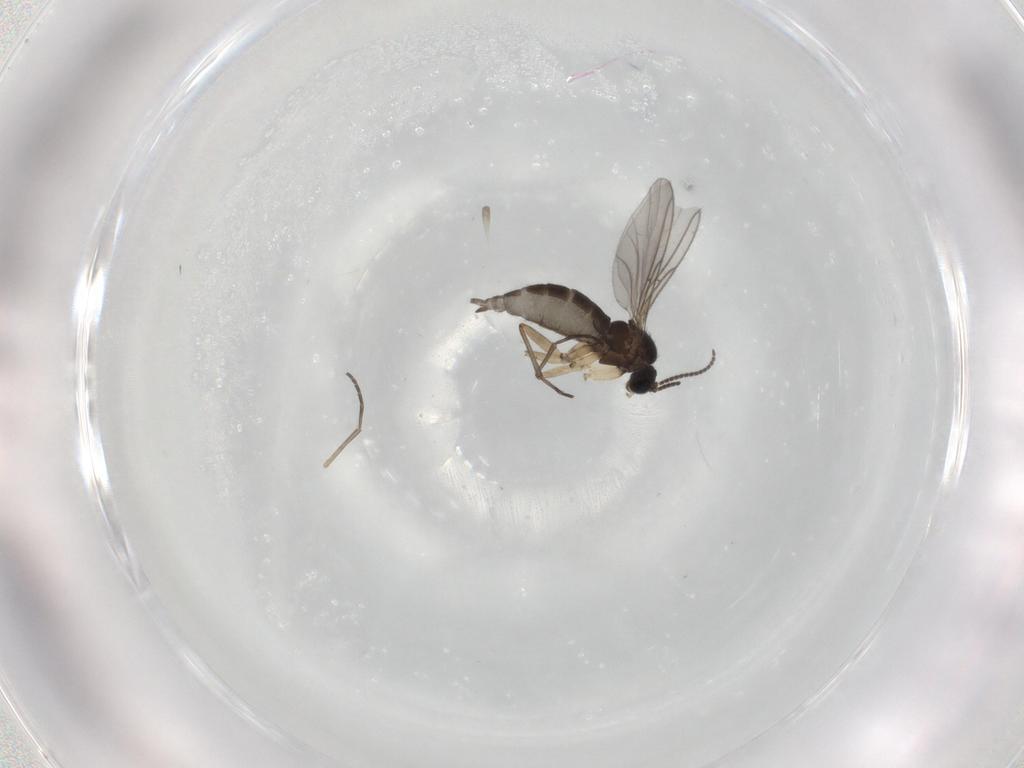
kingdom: Animalia
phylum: Arthropoda
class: Insecta
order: Diptera
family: Sciaridae
